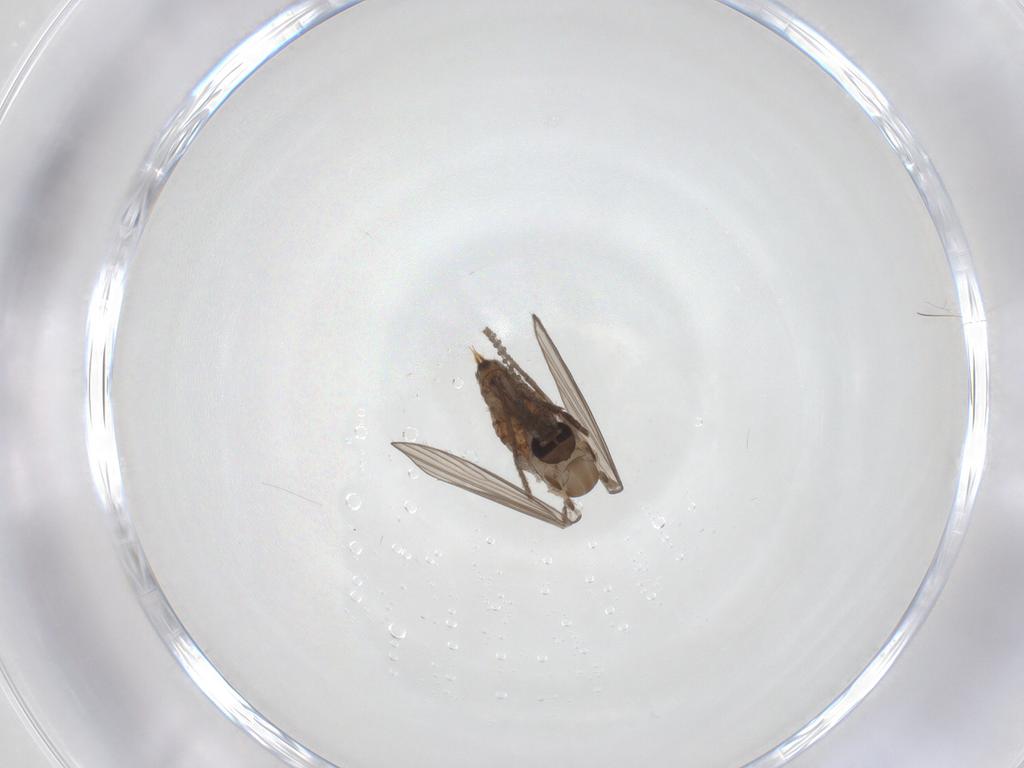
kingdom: Animalia
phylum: Arthropoda
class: Insecta
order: Diptera
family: Psychodidae
